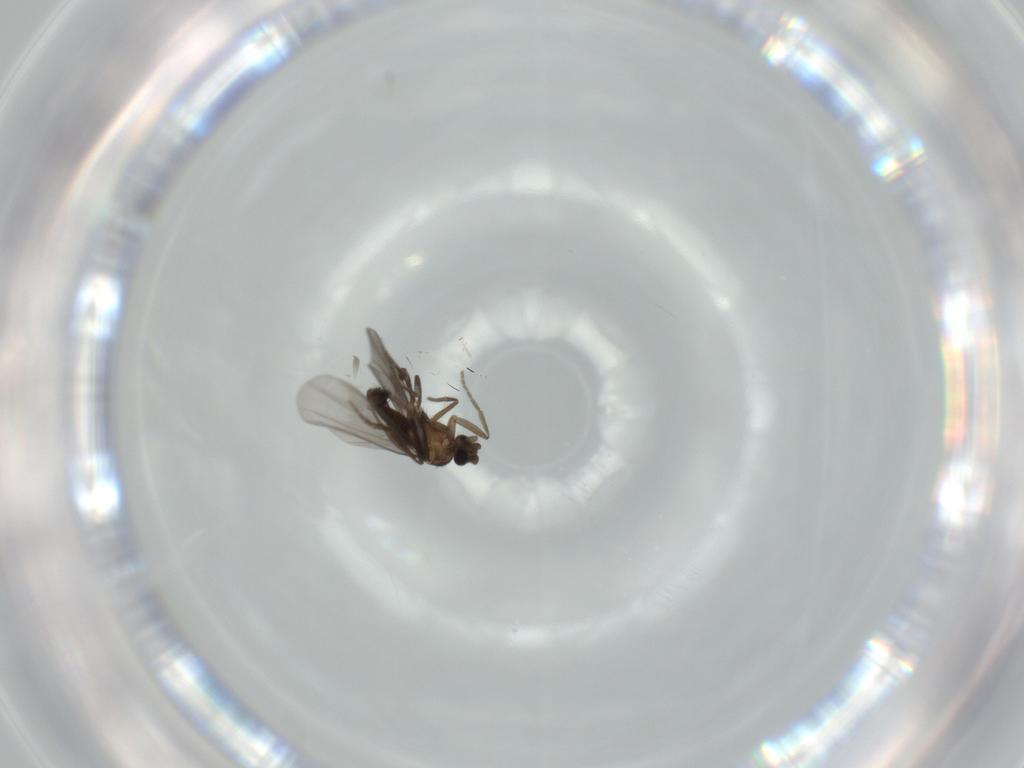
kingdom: Animalia
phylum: Arthropoda
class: Insecta
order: Diptera
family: Phoridae
